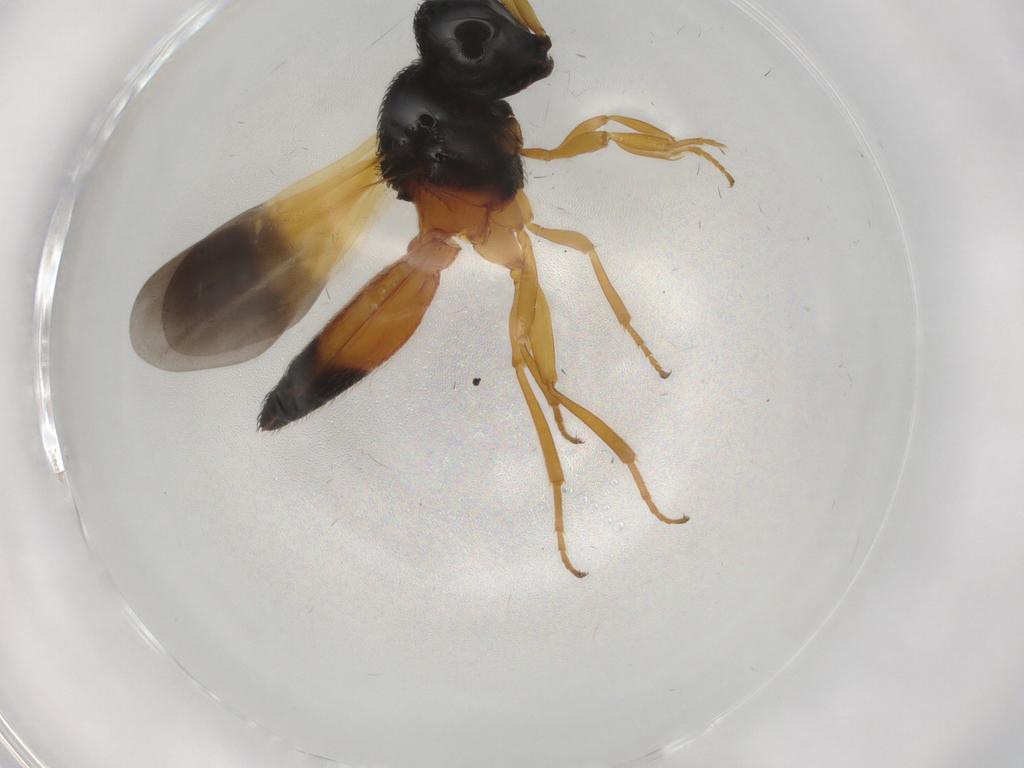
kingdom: Animalia
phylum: Arthropoda
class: Insecta
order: Hymenoptera
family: Scelionidae
